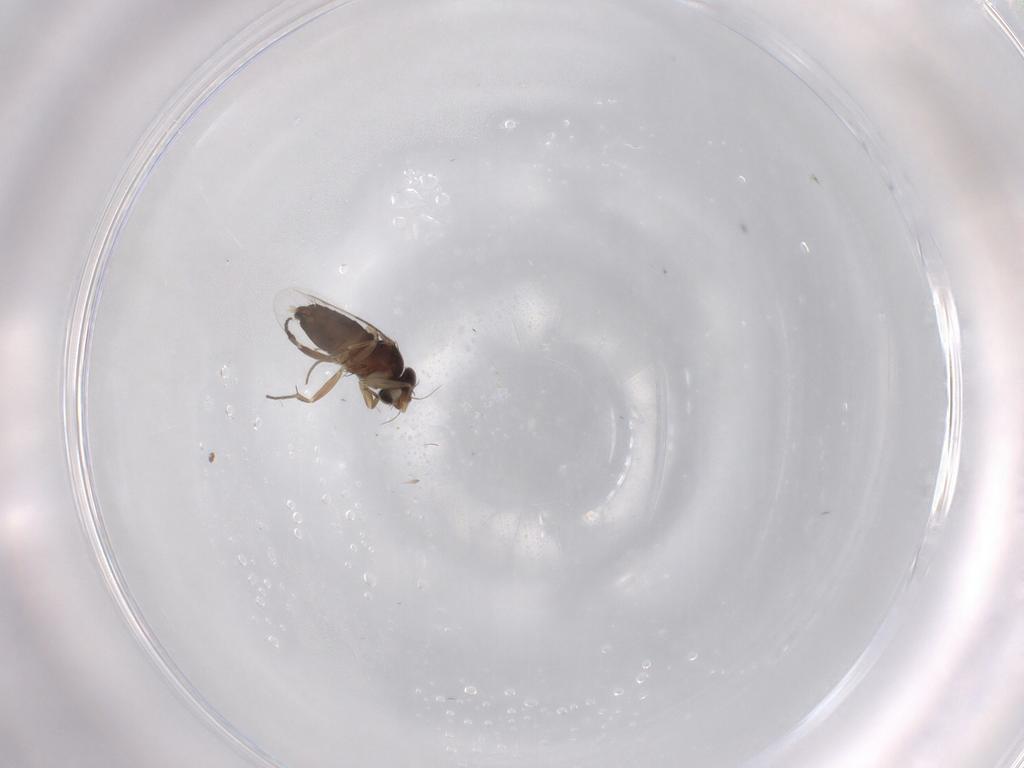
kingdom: Animalia
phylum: Arthropoda
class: Insecta
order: Diptera
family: Phoridae
